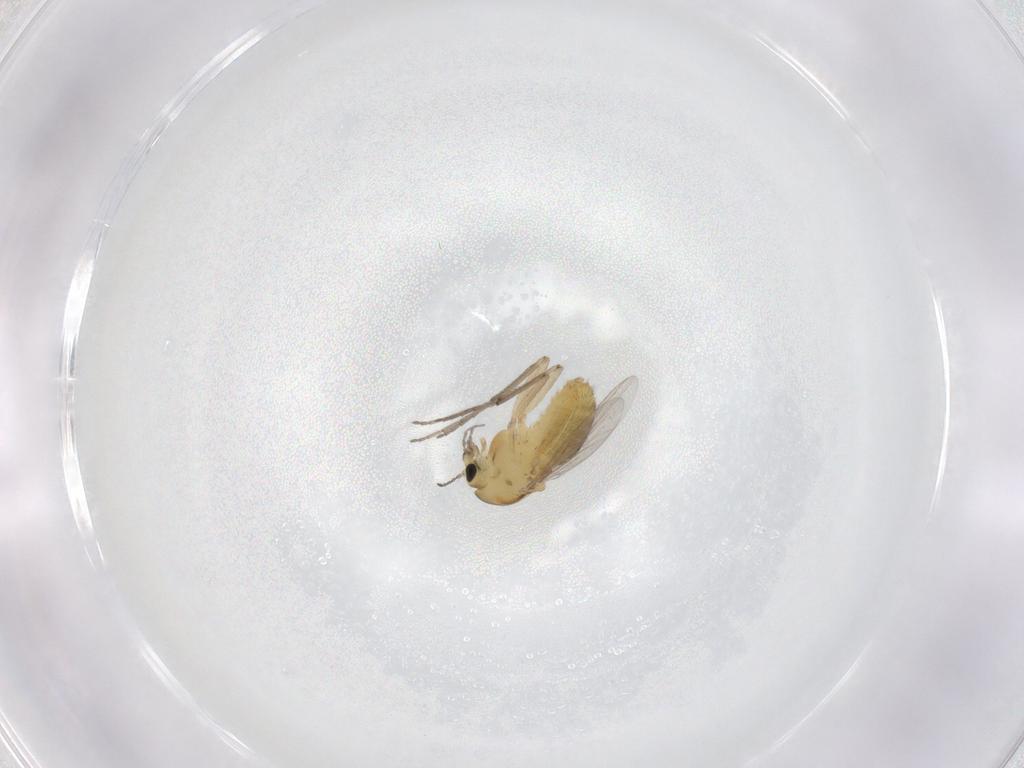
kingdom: Animalia
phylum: Arthropoda
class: Insecta
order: Diptera
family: Chironomidae
